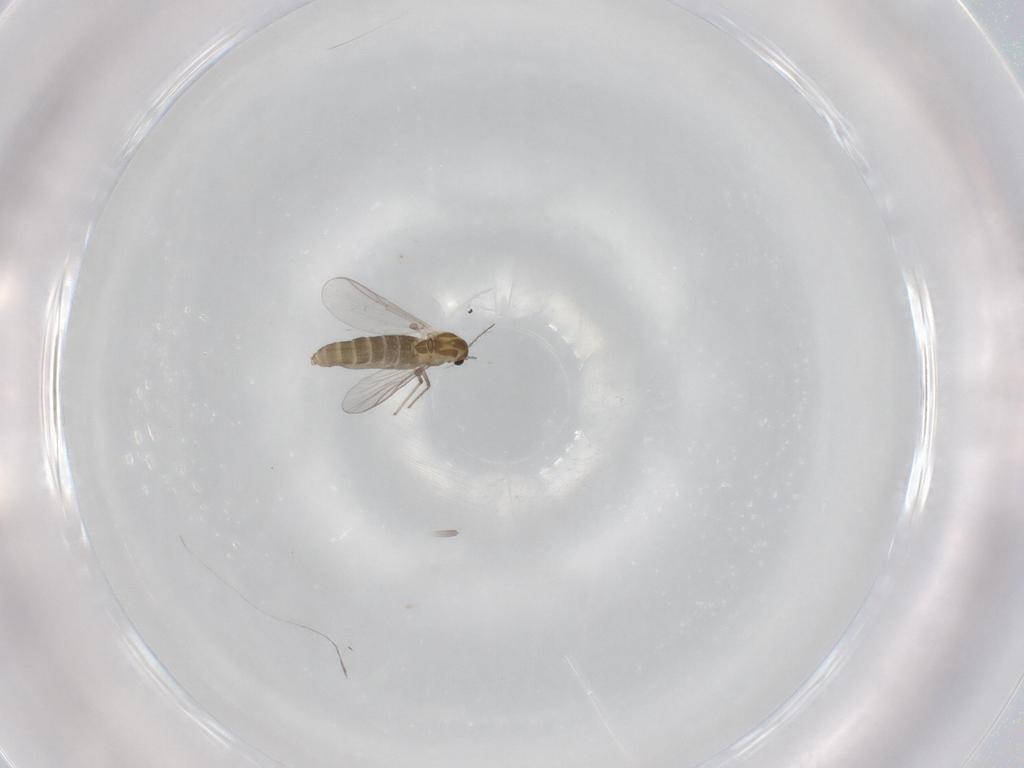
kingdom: Animalia
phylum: Arthropoda
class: Insecta
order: Diptera
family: Chironomidae
